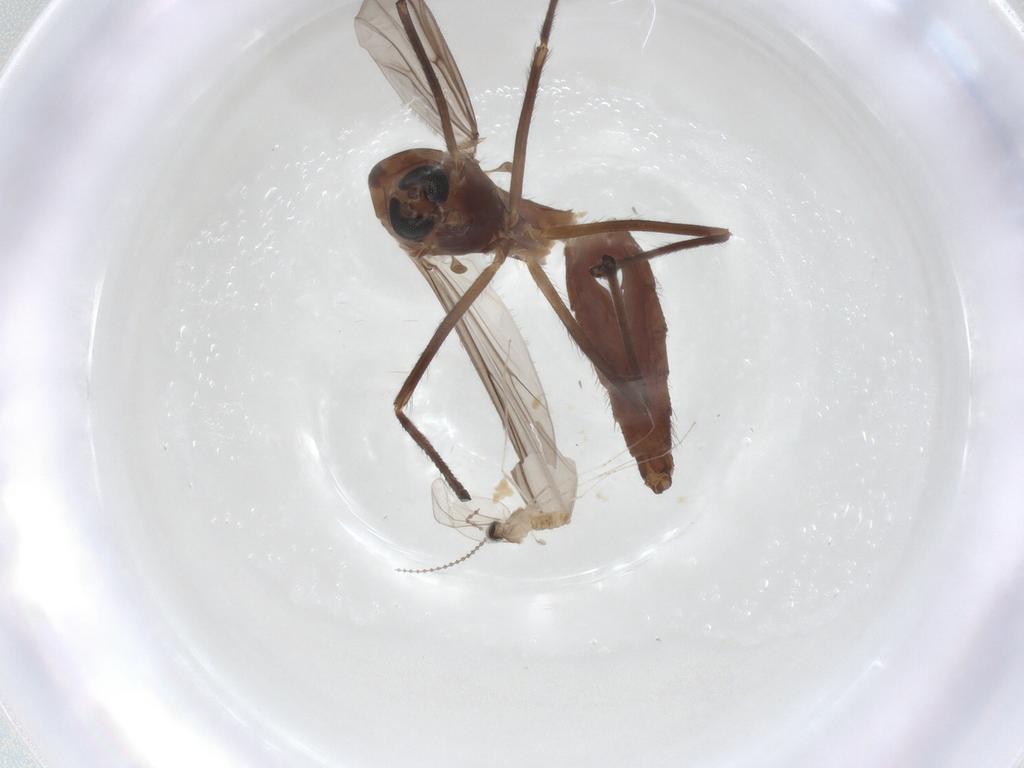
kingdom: Animalia
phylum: Arthropoda
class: Insecta
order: Diptera
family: Chironomidae
